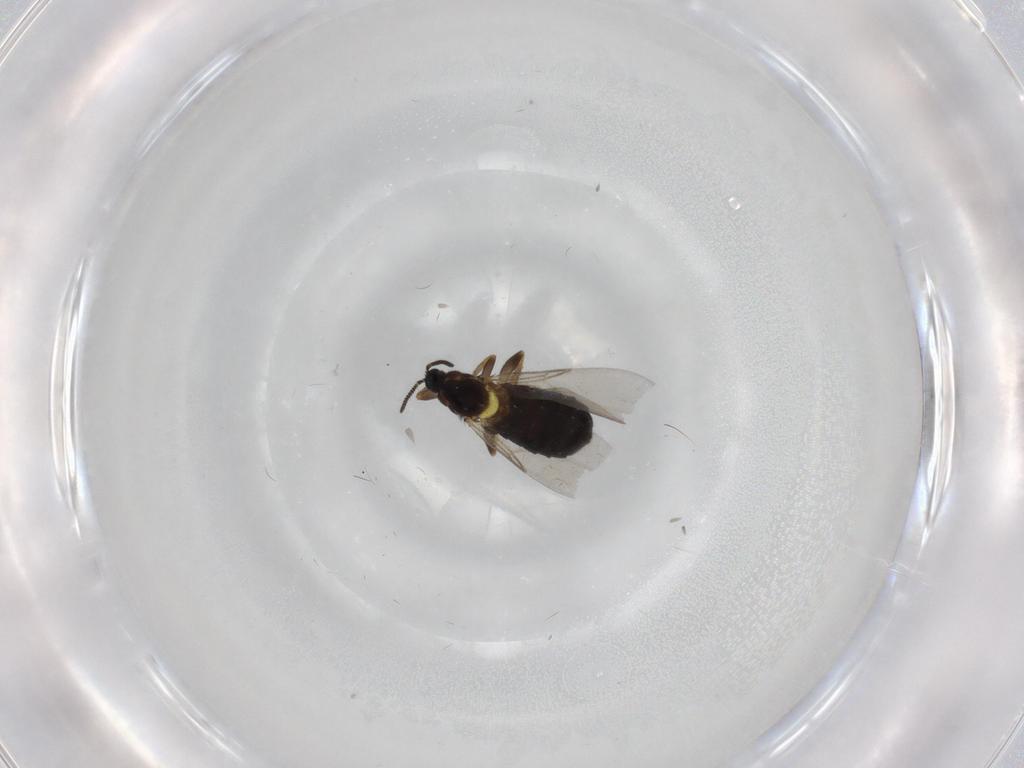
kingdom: Animalia
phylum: Arthropoda
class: Insecta
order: Diptera
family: Scatopsidae
